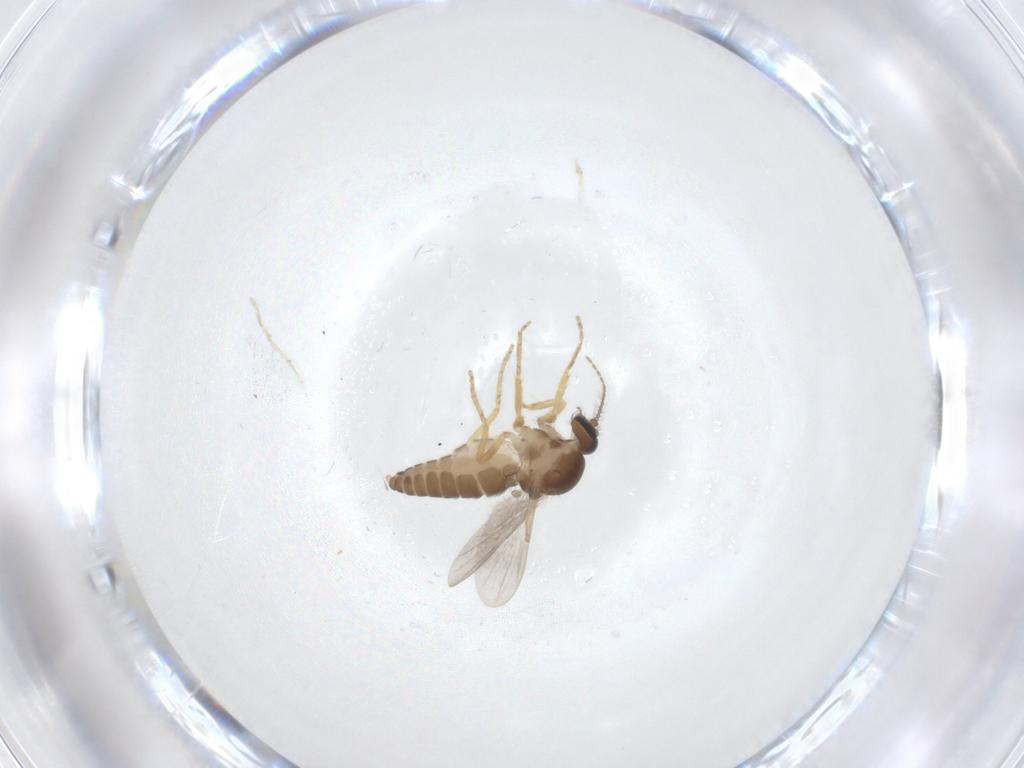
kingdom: Animalia
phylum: Arthropoda
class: Insecta
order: Diptera
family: Ceratopogonidae
